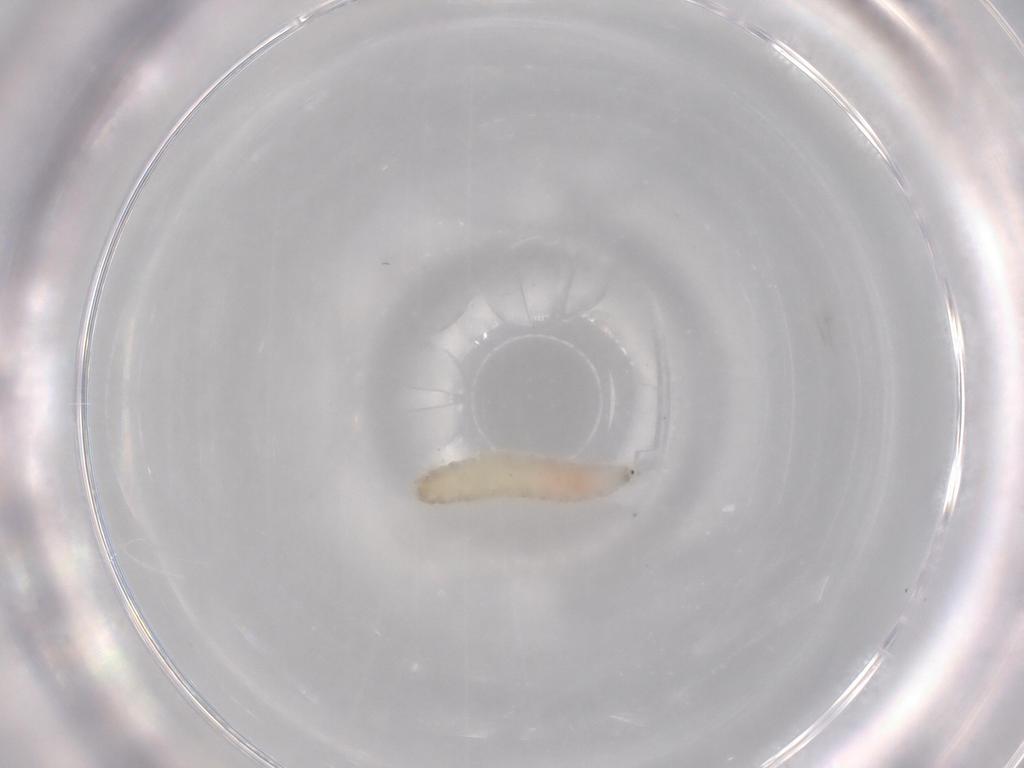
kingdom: Animalia
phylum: Arthropoda
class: Insecta
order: Diptera
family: Cecidomyiidae
